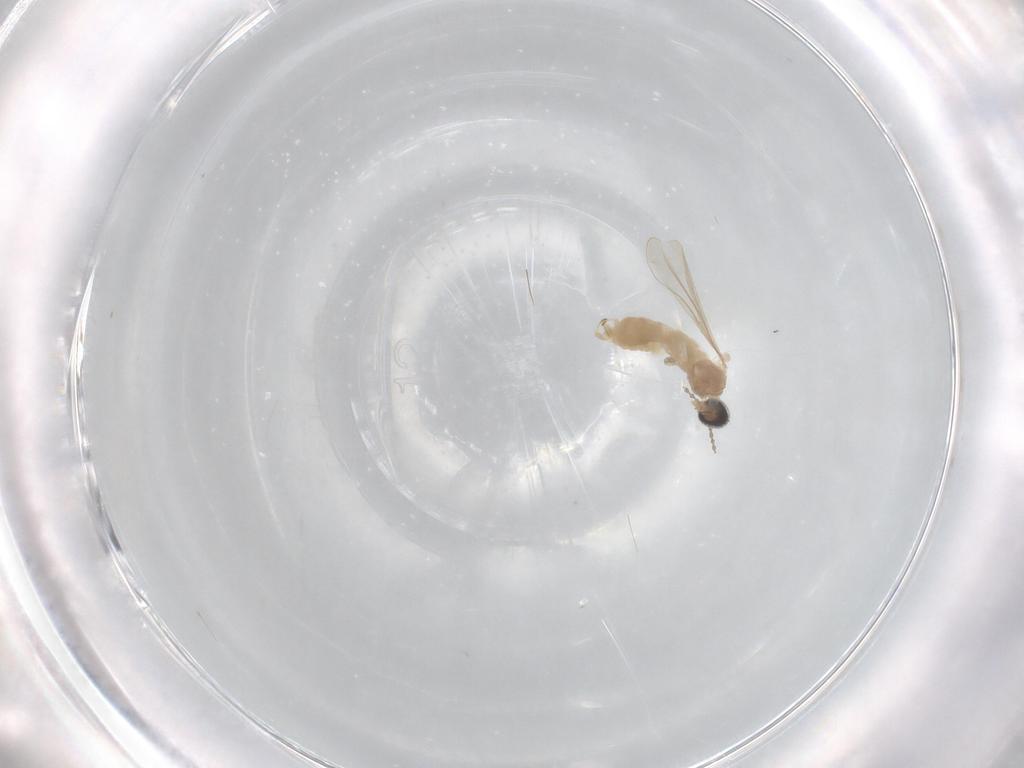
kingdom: Animalia
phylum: Arthropoda
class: Insecta
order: Diptera
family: Cecidomyiidae
